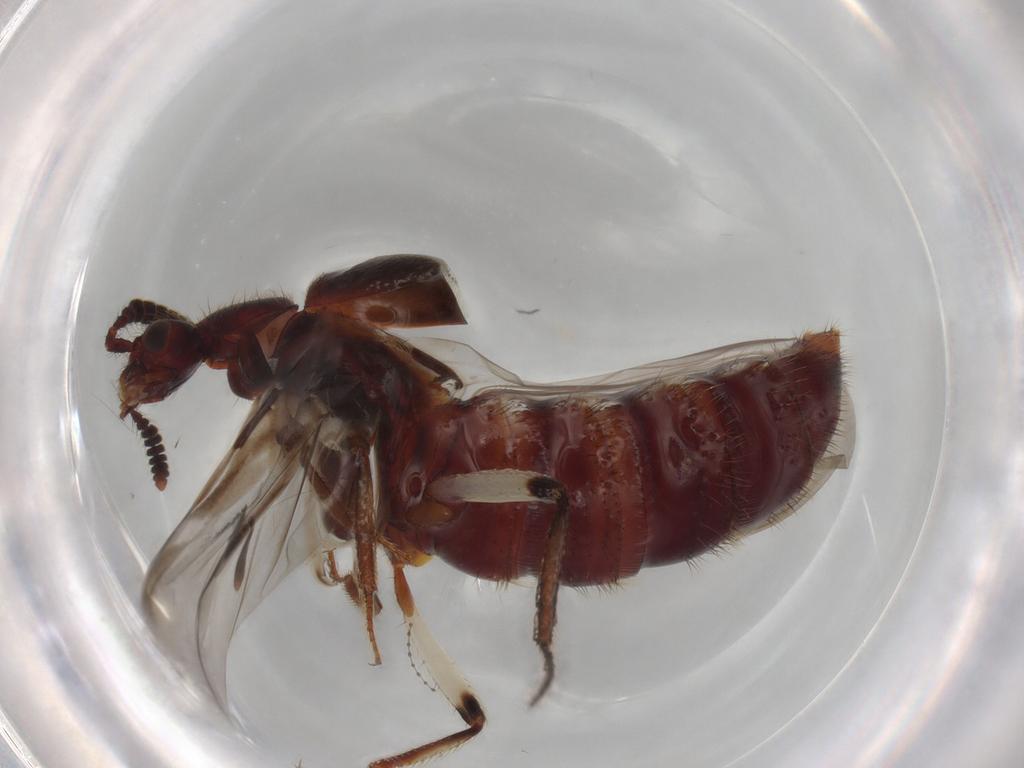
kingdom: Animalia
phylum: Arthropoda
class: Insecta
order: Coleoptera
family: Staphylinidae
